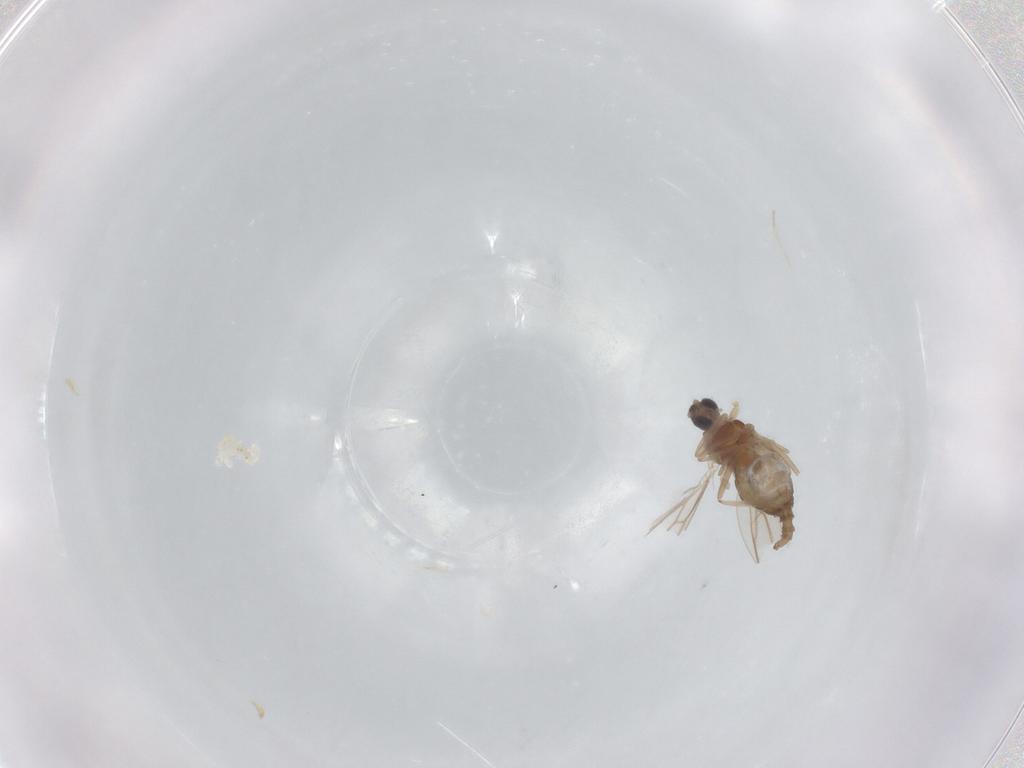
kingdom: Animalia
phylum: Arthropoda
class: Insecta
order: Diptera
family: Cecidomyiidae
